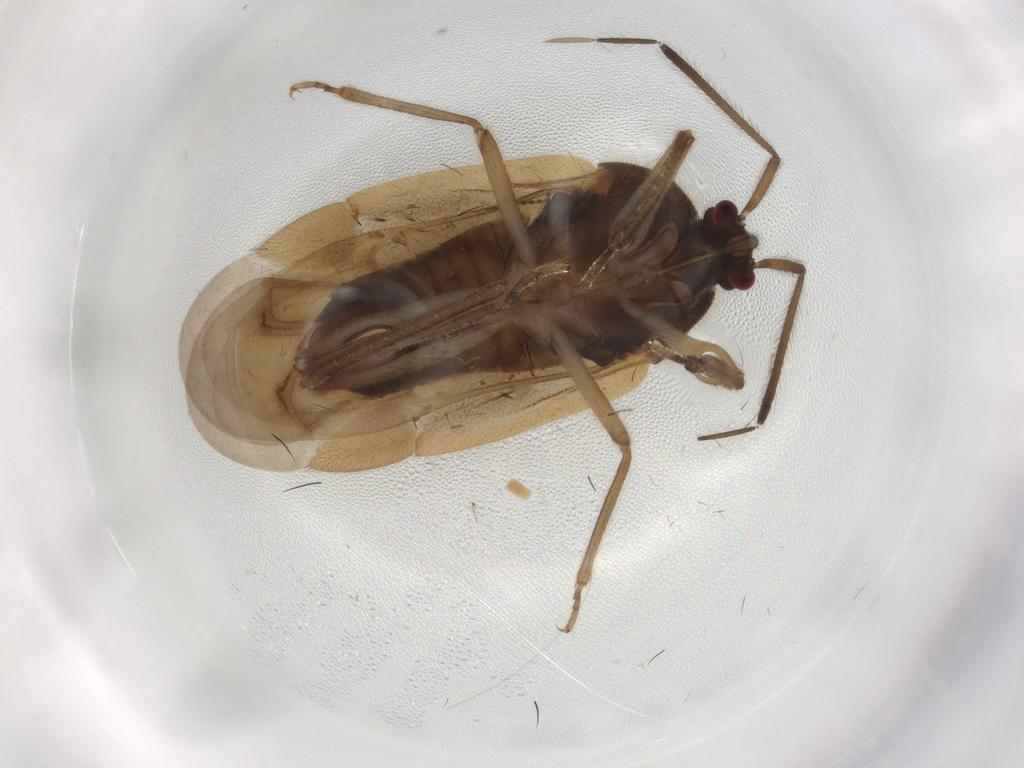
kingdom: Animalia
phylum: Arthropoda
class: Insecta
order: Hemiptera
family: Miridae
